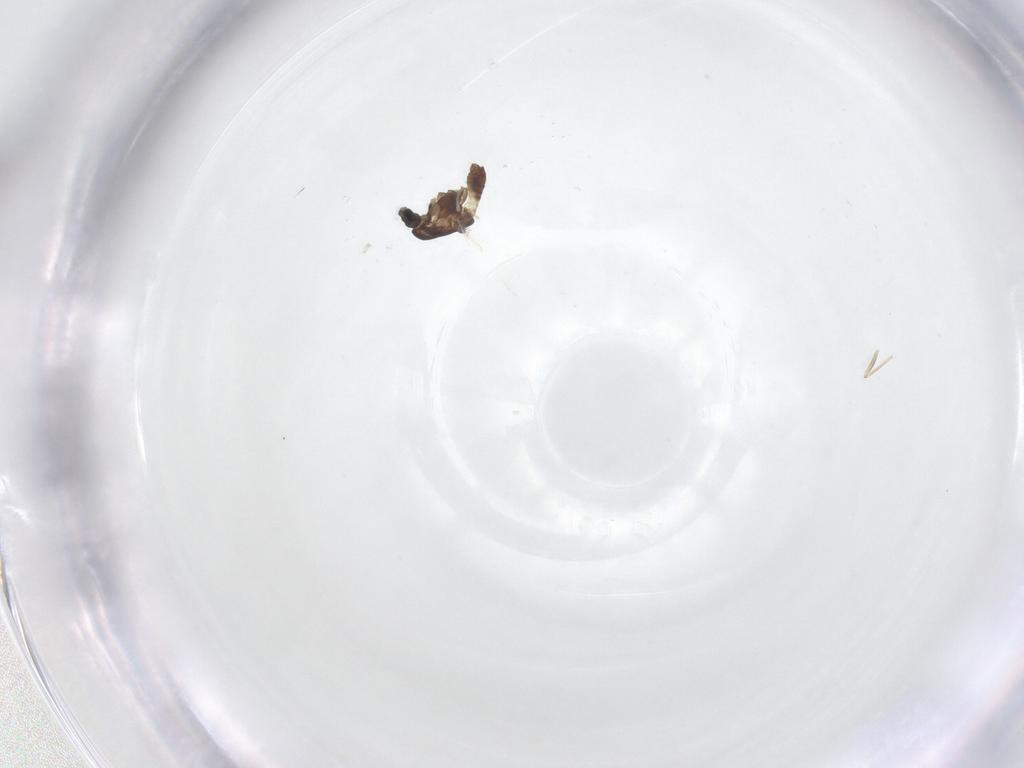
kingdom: Animalia
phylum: Arthropoda
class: Insecta
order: Diptera
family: Chironomidae
